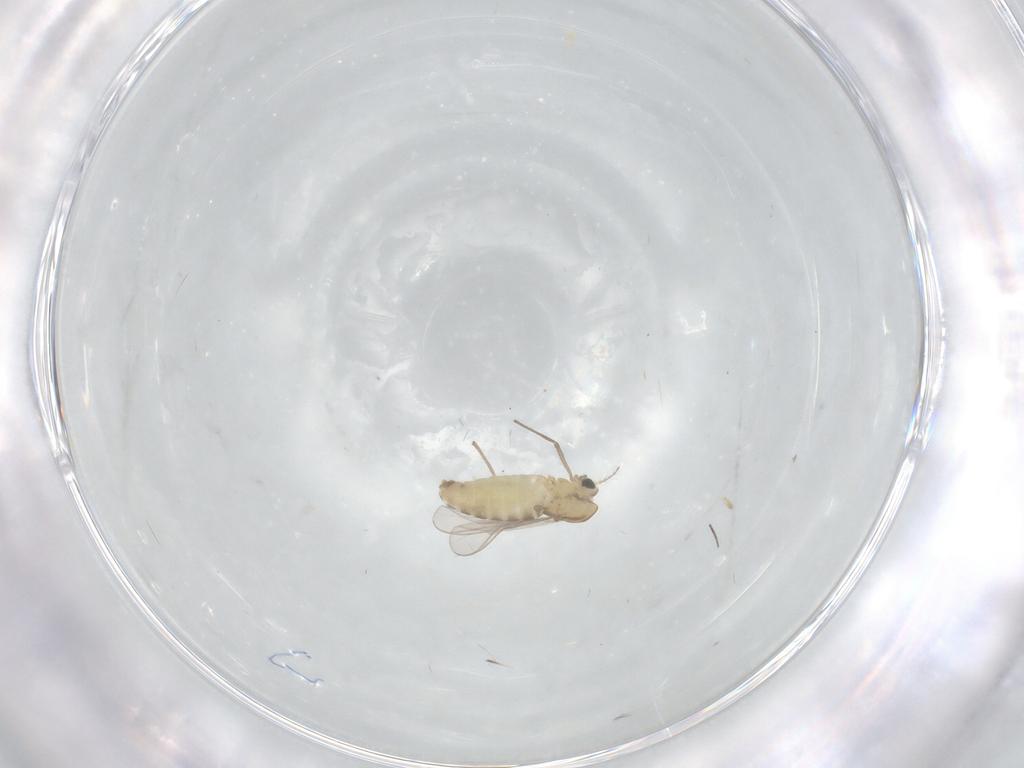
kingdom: Animalia
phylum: Arthropoda
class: Insecta
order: Diptera
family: Chironomidae
